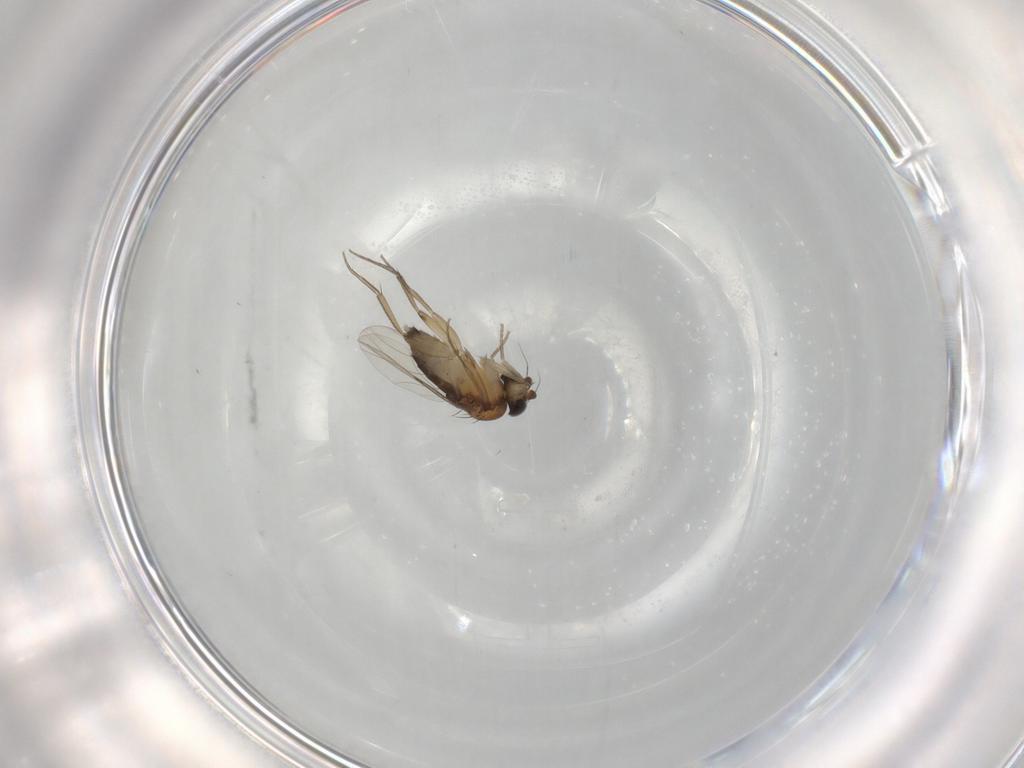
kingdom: Animalia
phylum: Arthropoda
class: Insecta
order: Diptera
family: Phoridae
